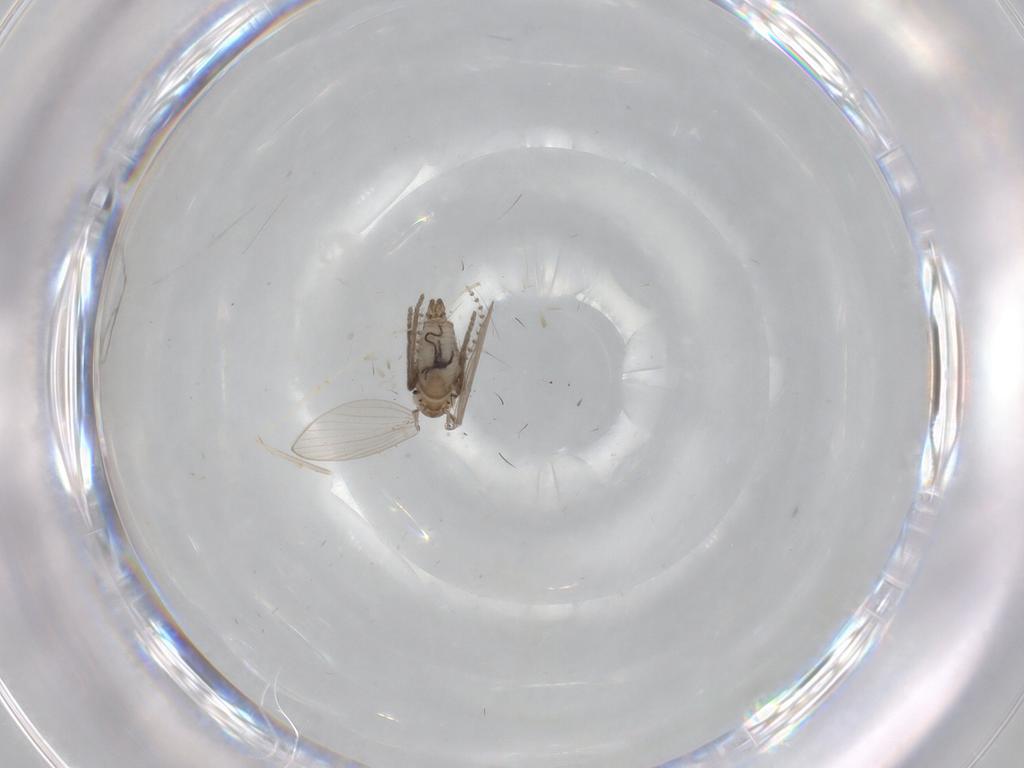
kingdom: Animalia
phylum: Arthropoda
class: Insecta
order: Diptera
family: Psychodidae
